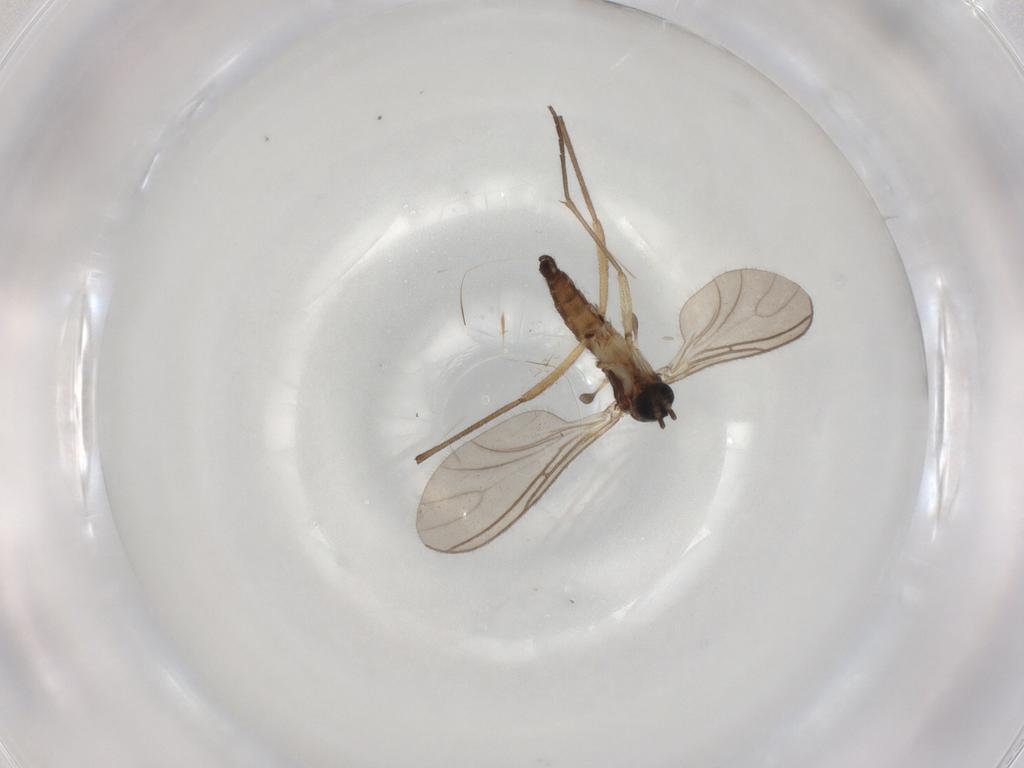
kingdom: Animalia
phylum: Arthropoda
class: Insecta
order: Diptera
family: Sciaridae
